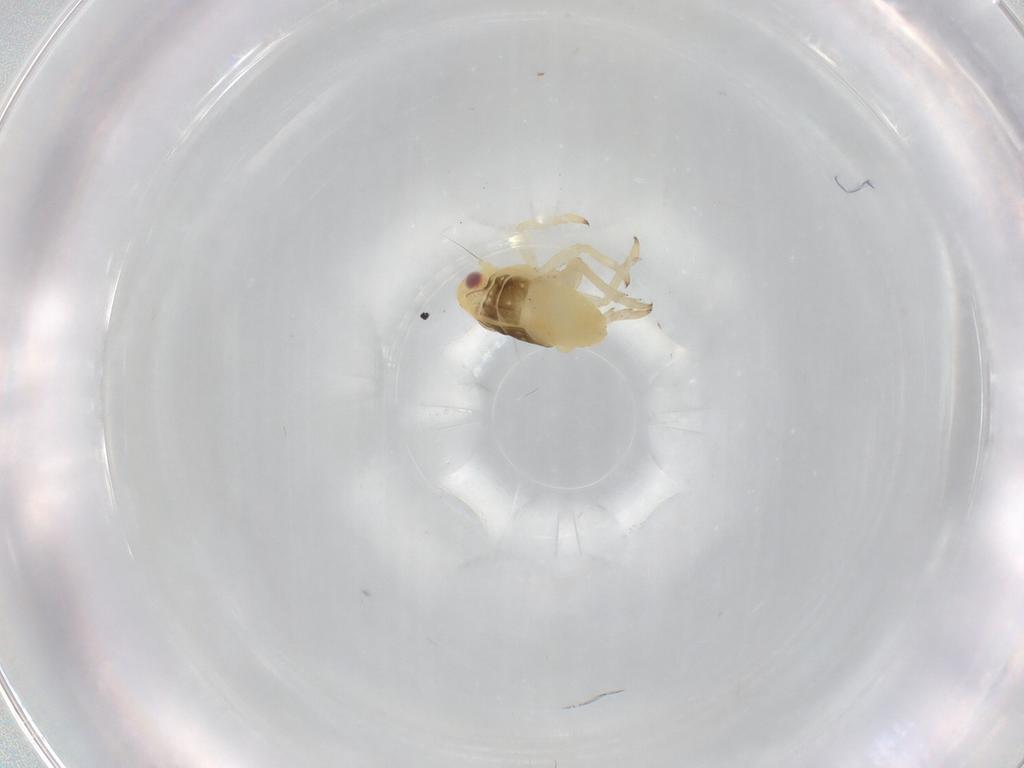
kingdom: Animalia
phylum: Arthropoda
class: Insecta
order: Hemiptera
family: Caliscelidae
